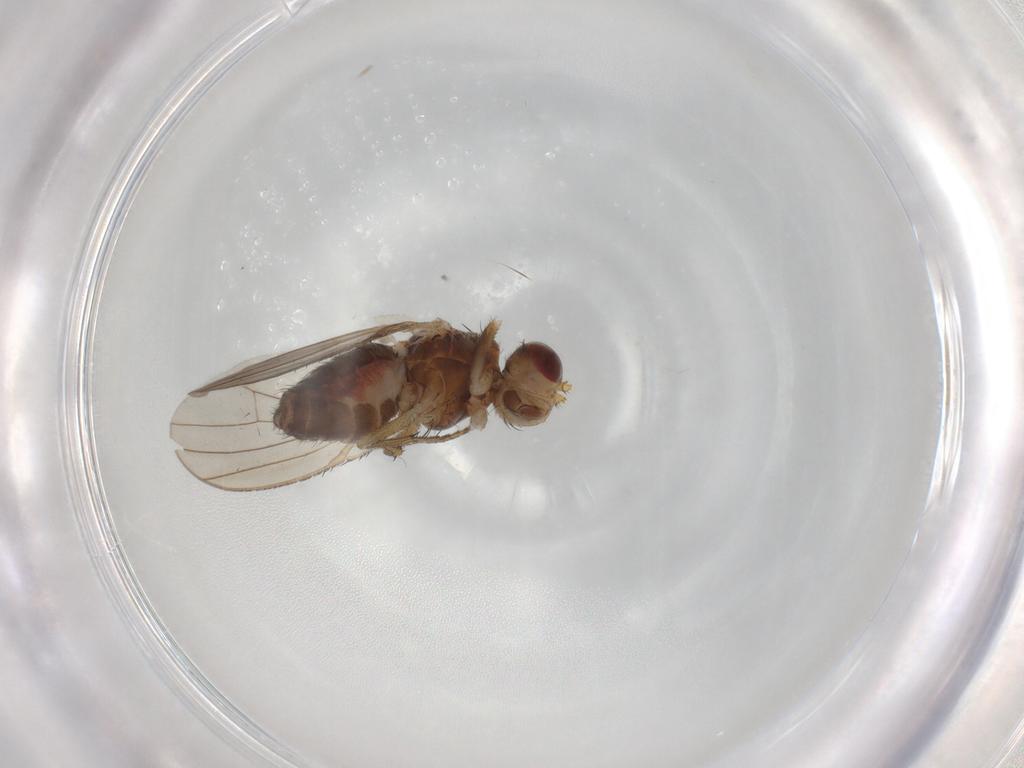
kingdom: Animalia
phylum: Arthropoda
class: Insecta
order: Diptera
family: Heleomyzidae
